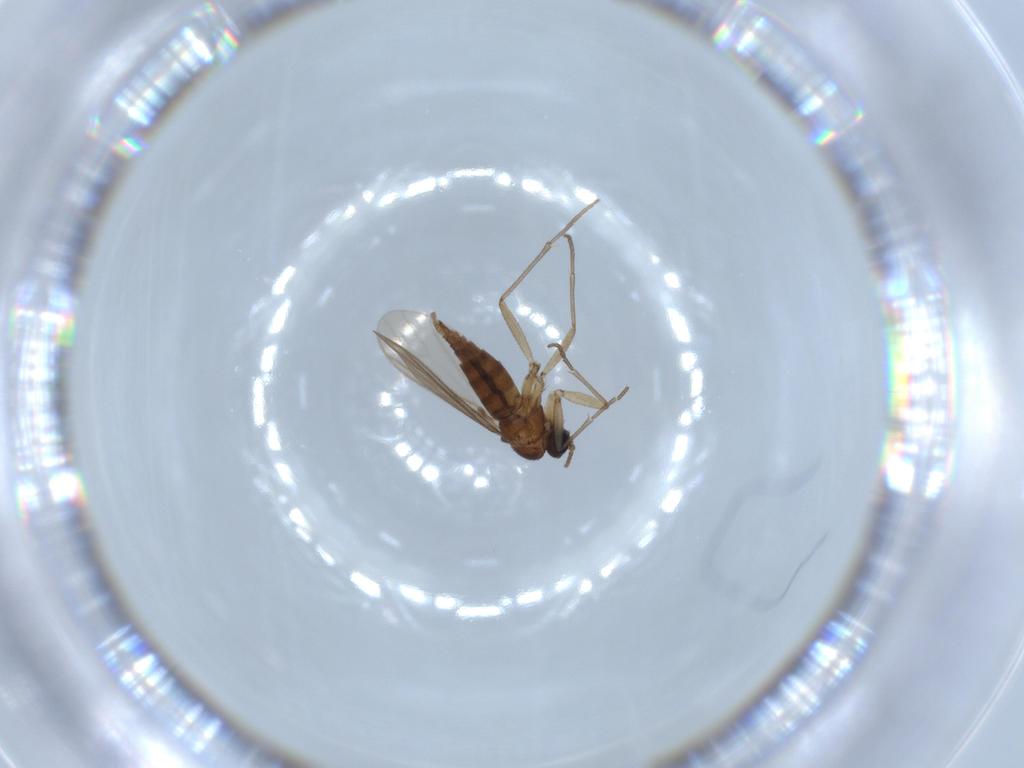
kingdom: Animalia
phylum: Arthropoda
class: Insecta
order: Diptera
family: Sciaridae
